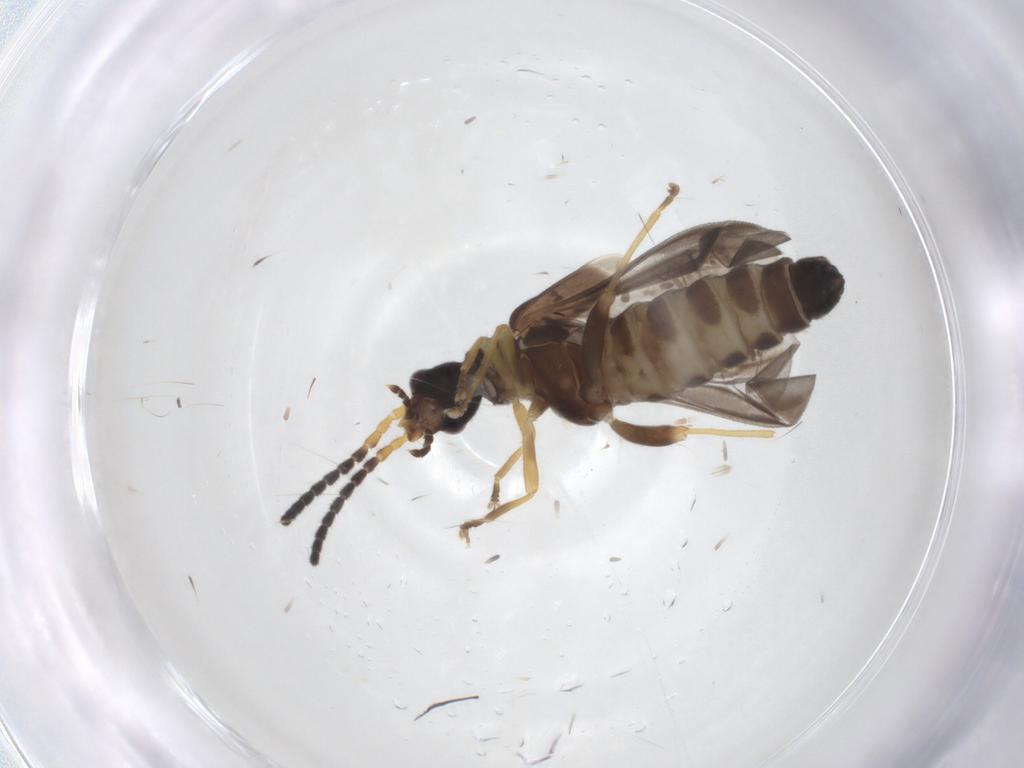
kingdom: Animalia
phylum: Arthropoda
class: Insecta
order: Coleoptera
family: Cantharidae
